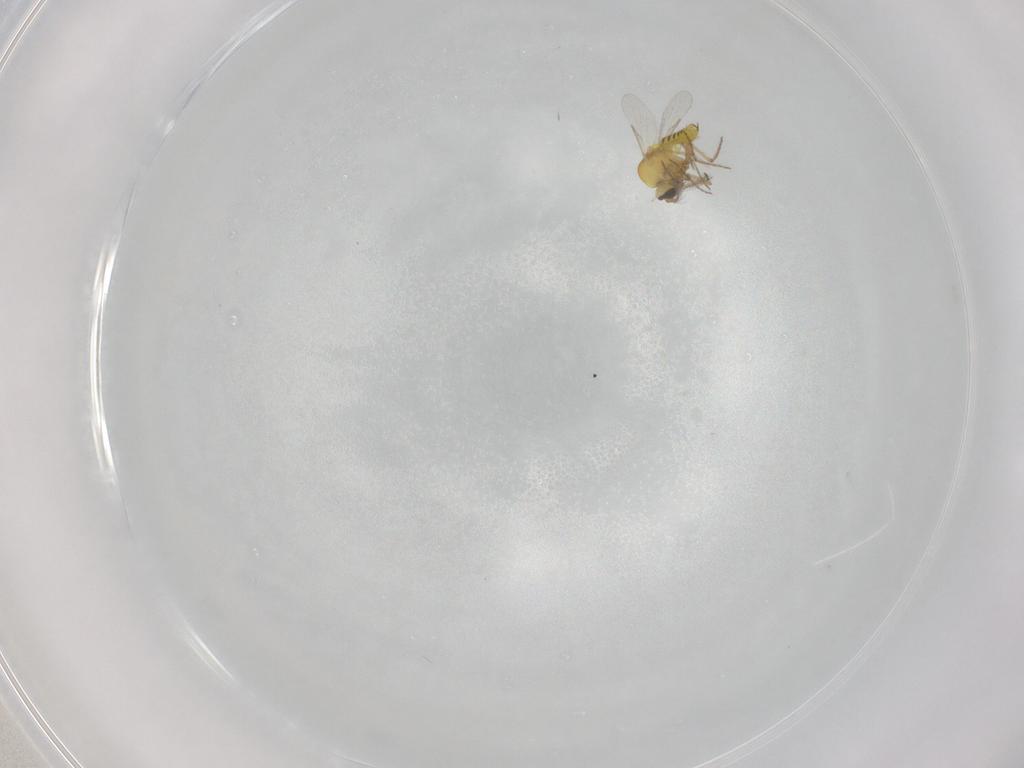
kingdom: Animalia
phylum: Arthropoda
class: Insecta
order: Diptera
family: Ceratopogonidae
